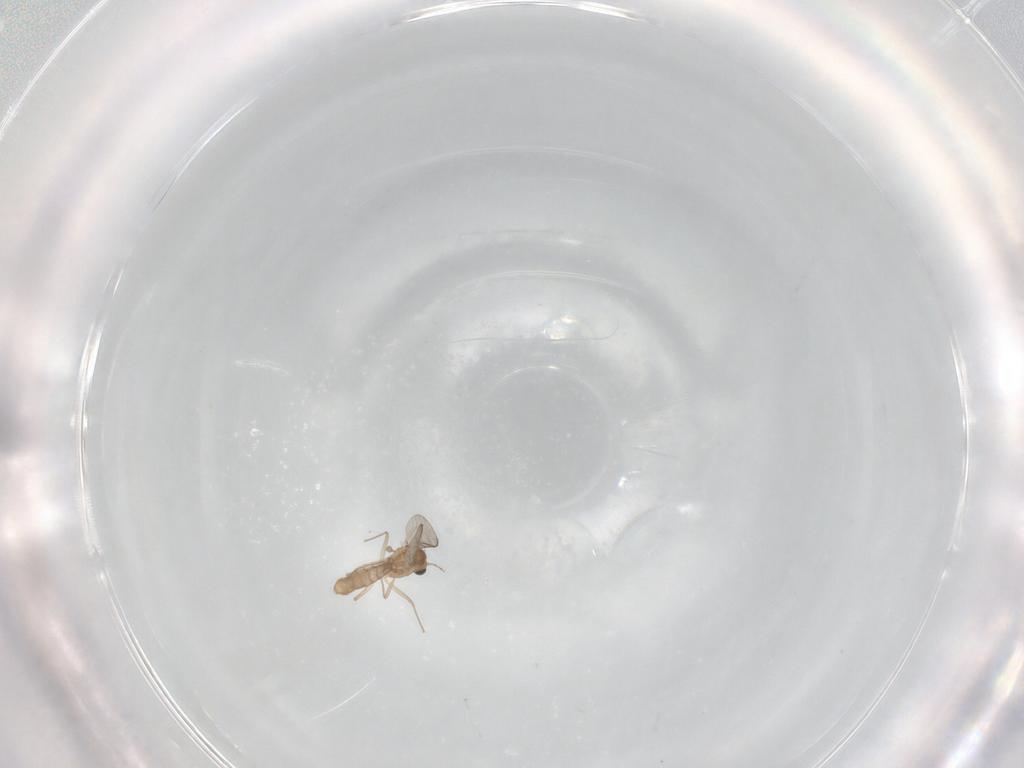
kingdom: Animalia
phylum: Arthropoda
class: Insecta
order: Diptera
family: Chironomidae
